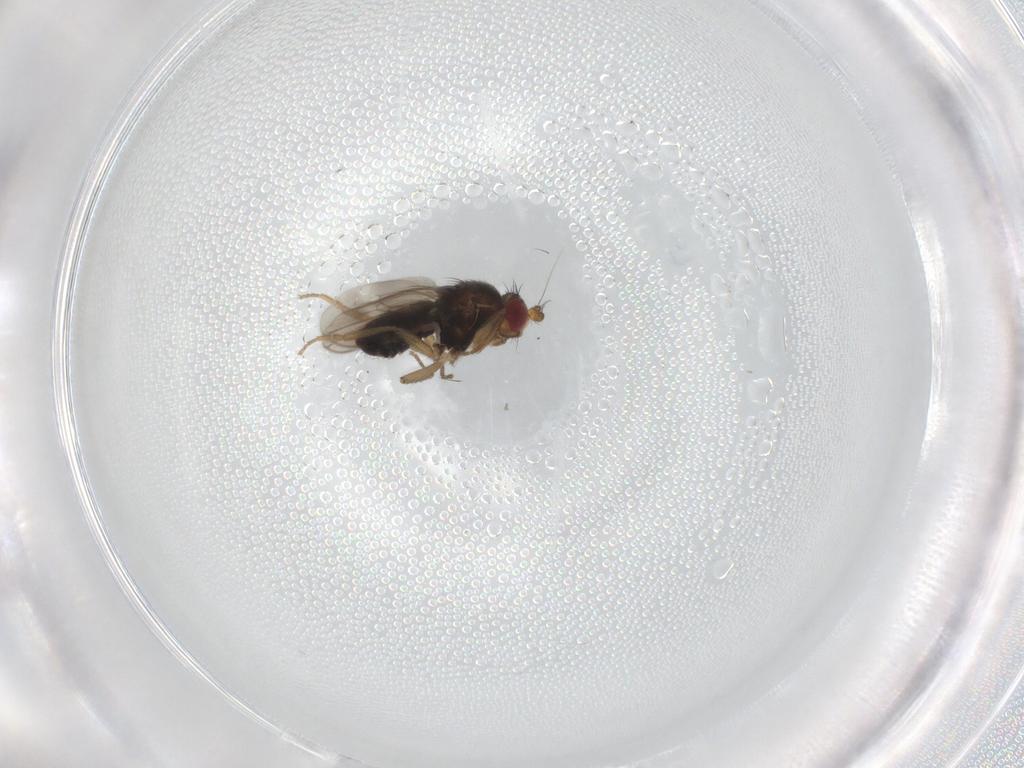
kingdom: Animalia
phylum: Arthropoda
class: Insecta
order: Diptera
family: Sphaeroceridae
